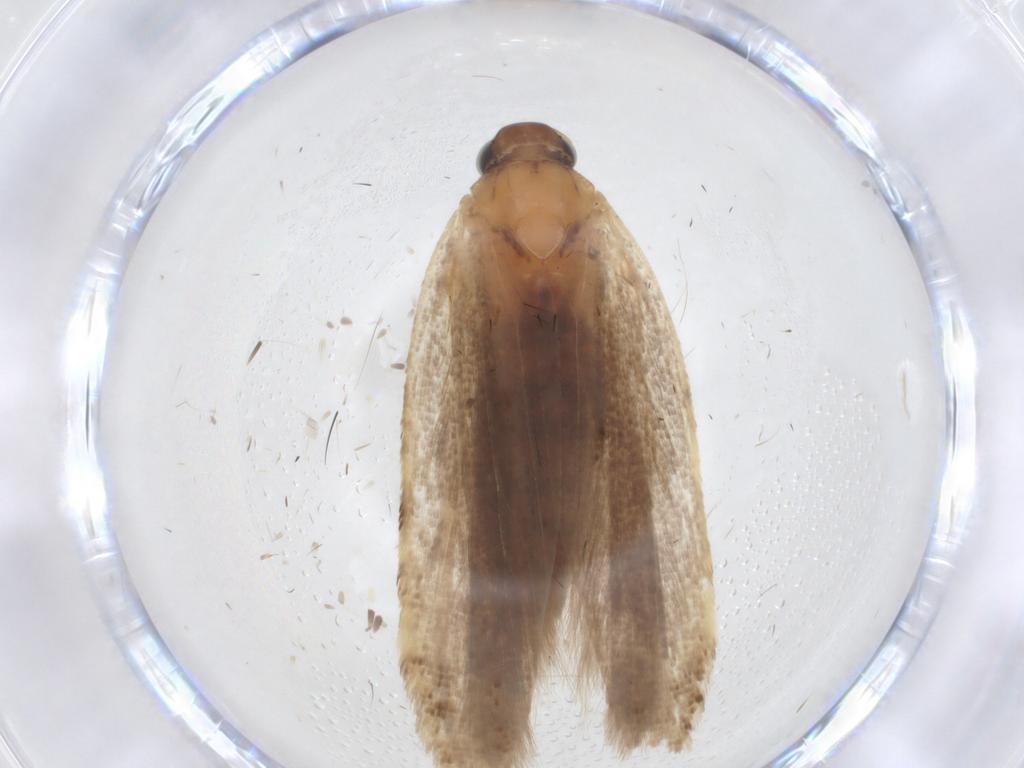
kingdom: Animalia
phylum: Arthropoda
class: Insecta
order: Lepidoptera
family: Gelechiidae
